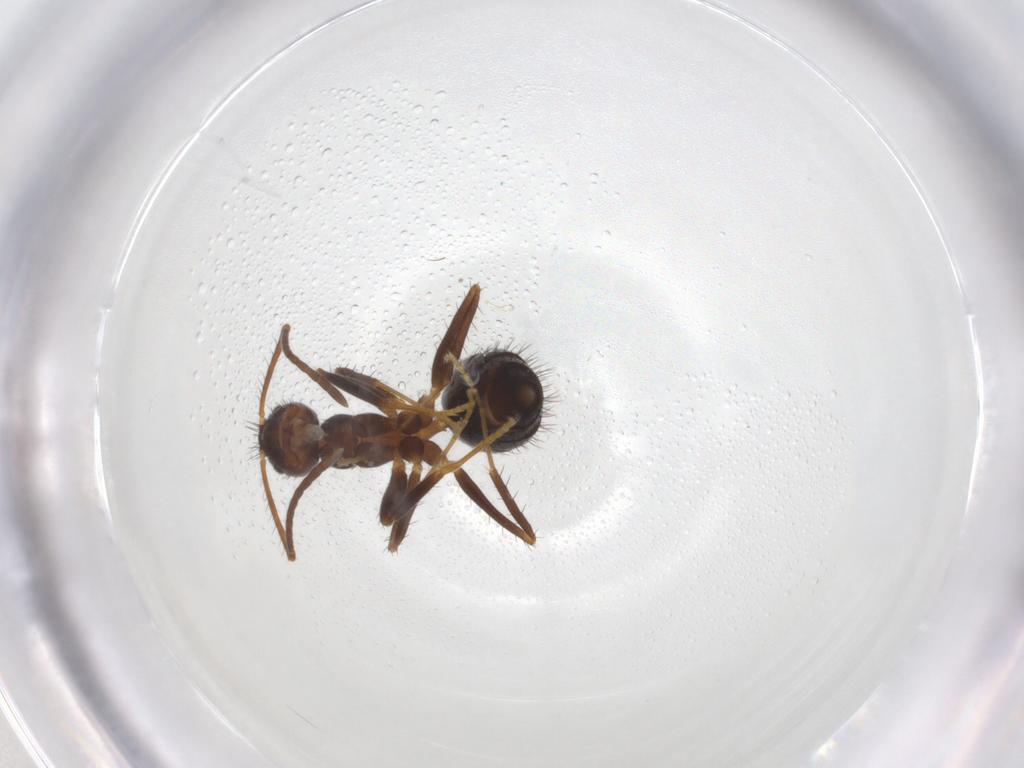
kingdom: Animalia
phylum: Arthropoda
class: Insecta
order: Hymenoptera
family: Formicidae
